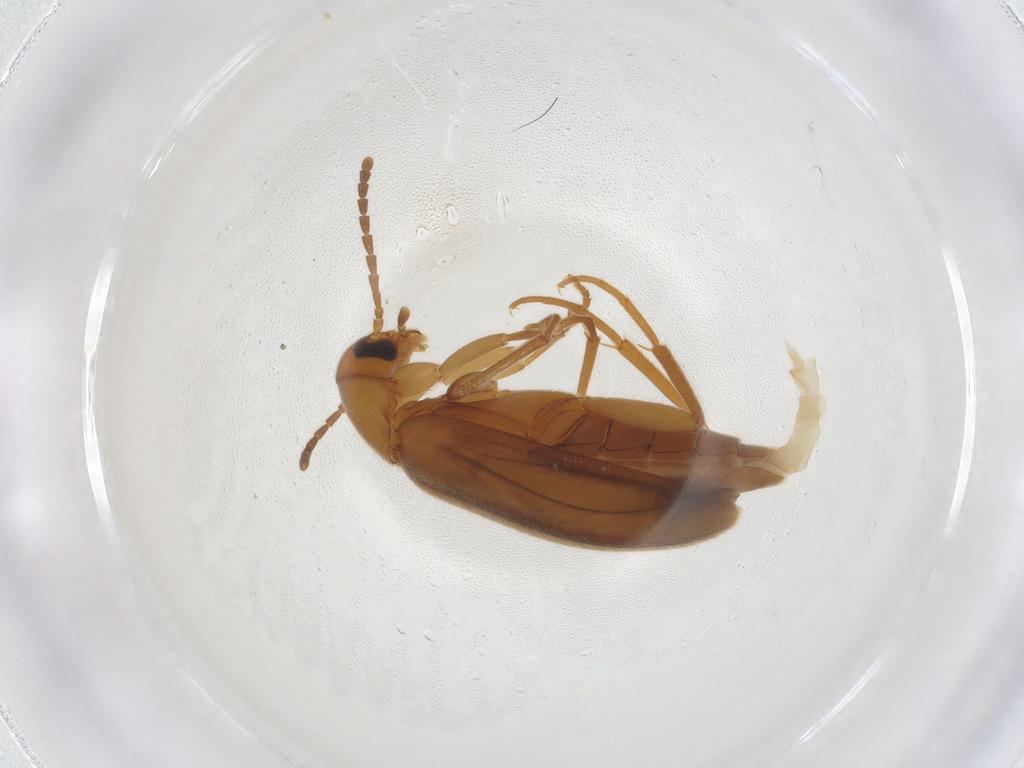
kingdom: Animalia
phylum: Arthropoda
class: Insecta
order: Coleoptera
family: Scraptiidae
